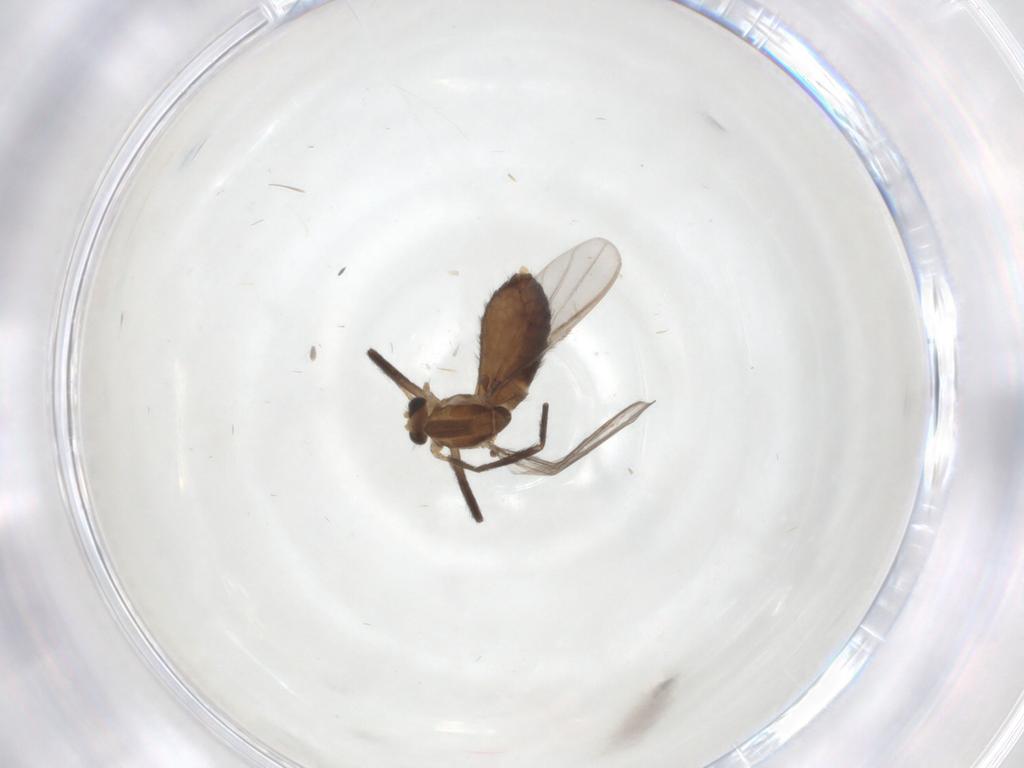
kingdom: Animalia
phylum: Arthropoda
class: Insecta
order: Diptera
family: Chironomidae
